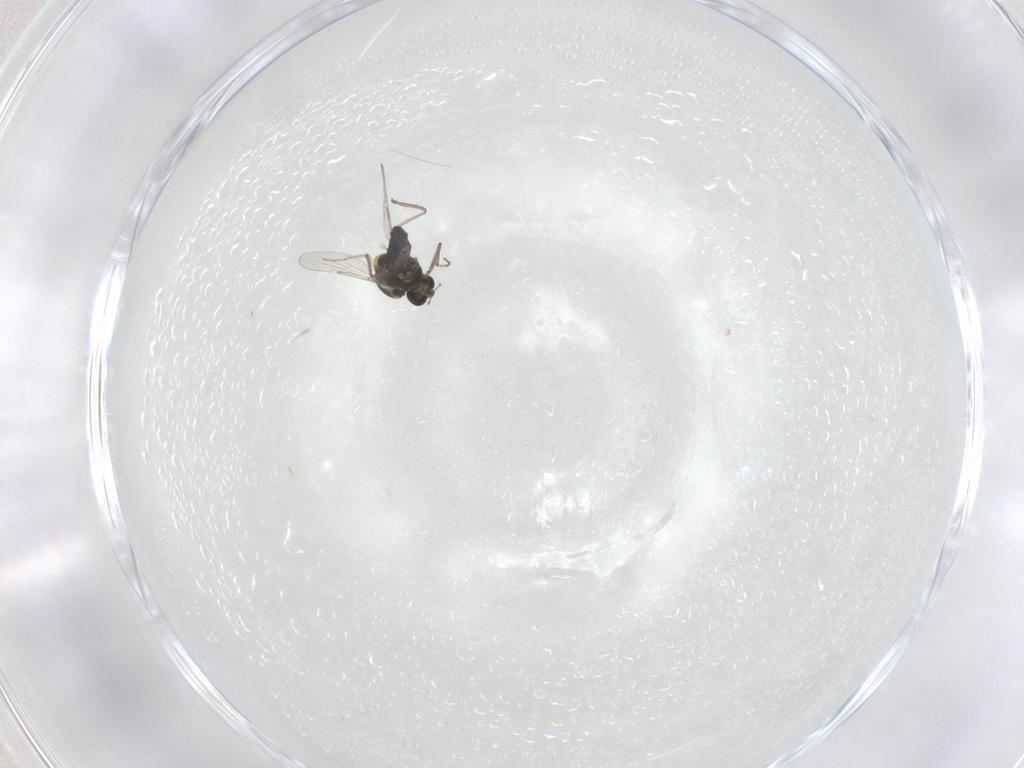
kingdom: Animalia
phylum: Arthropoda
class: Insecta
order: Diptera
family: Ceratopogonidae
